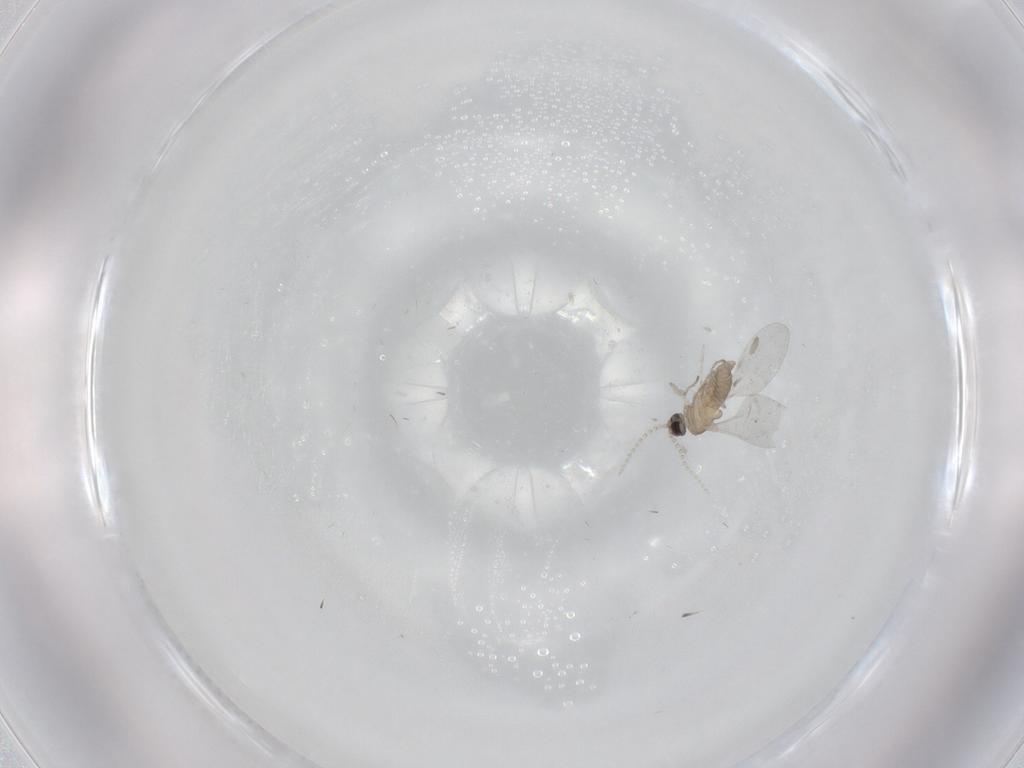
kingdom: Animalia
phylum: Arthropoda
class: Insecta
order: Diptera
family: Cecidomyiidae
